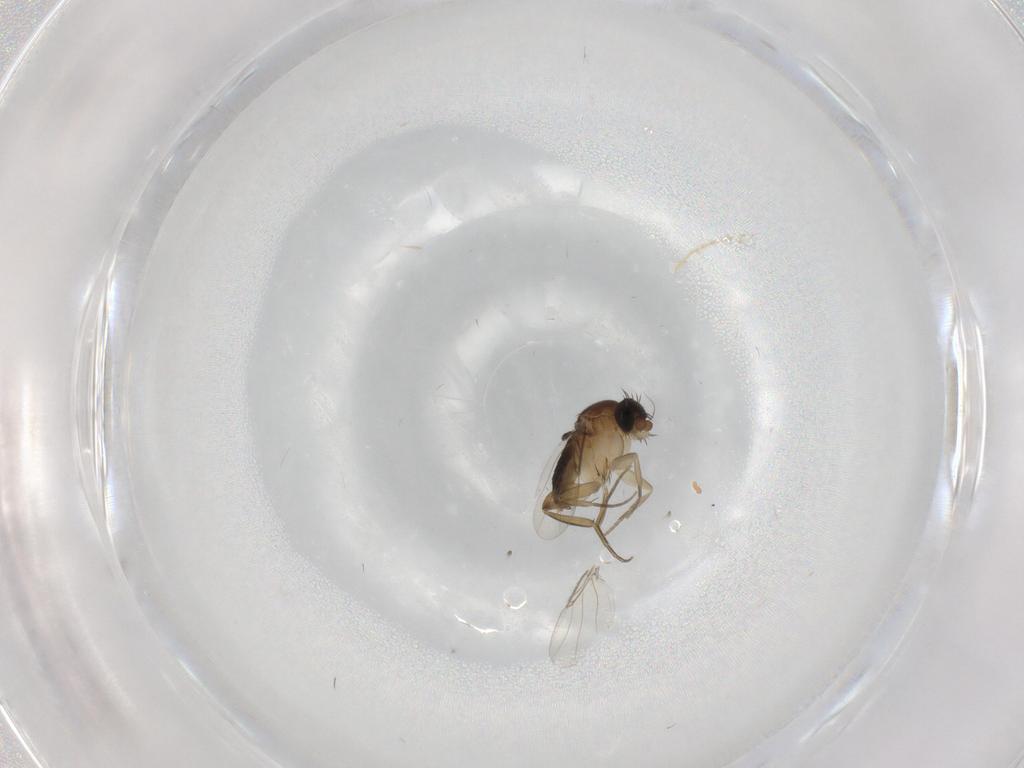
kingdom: Animalia
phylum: Arthropoda
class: Insecta
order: Diptera
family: Phoridae
